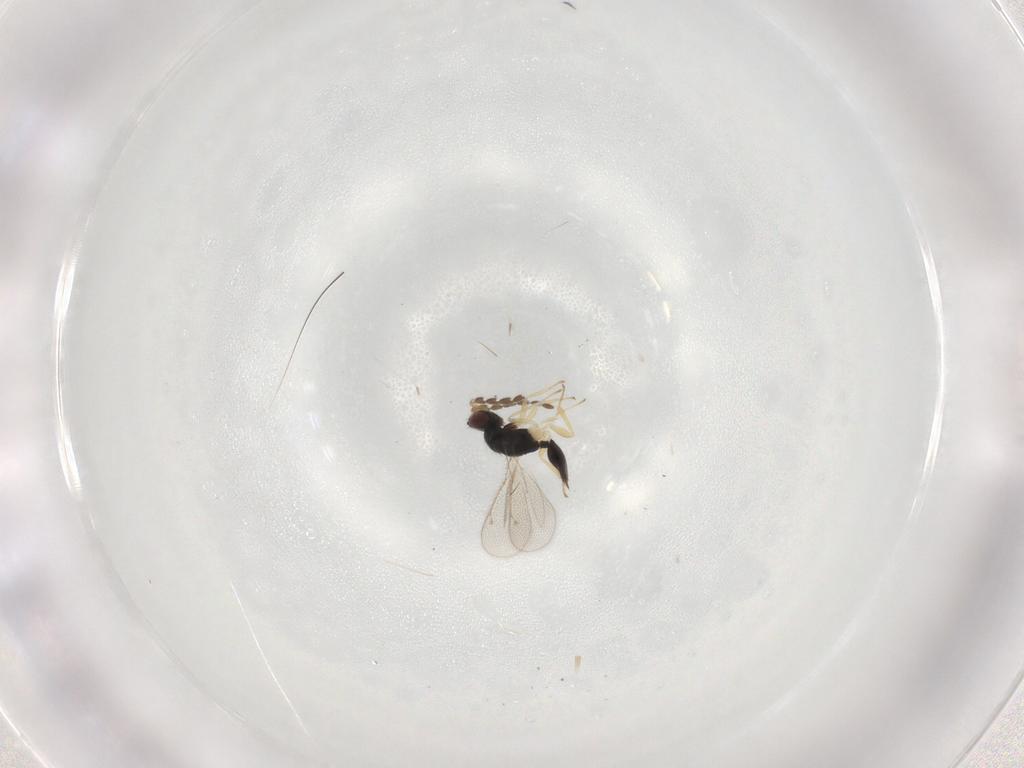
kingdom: Animalia
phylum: Arthropoda
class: Insecta
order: Hymenoptera
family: Eulophidae
